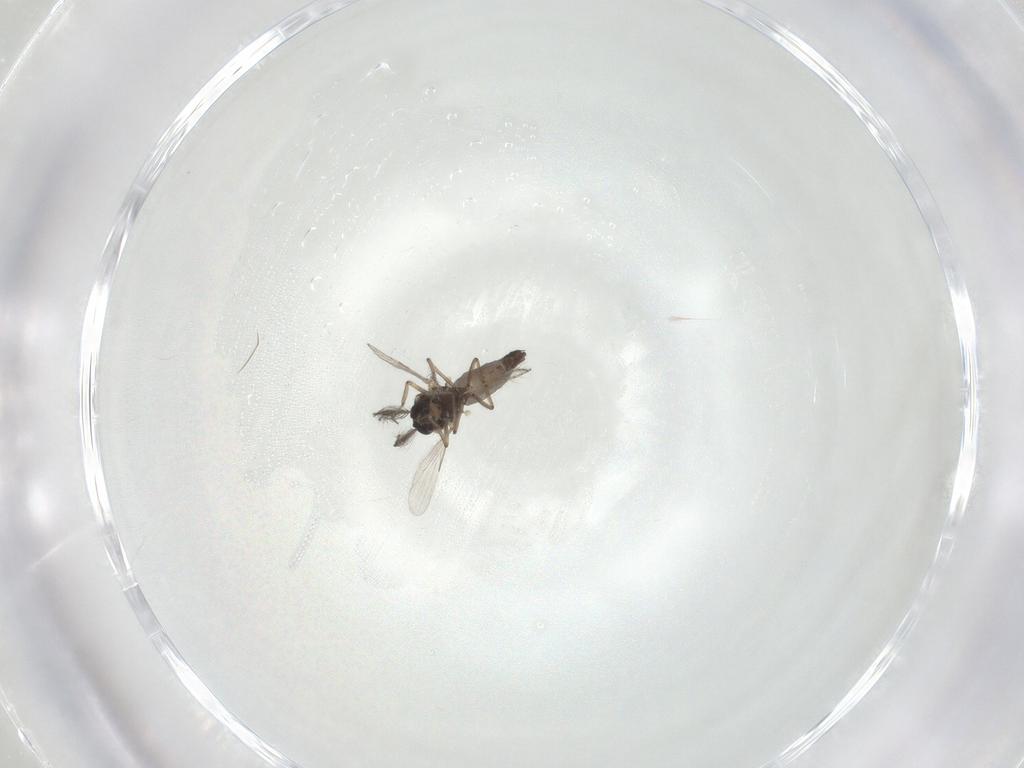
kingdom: Animalia
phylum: Arthropoda
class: Insecta
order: Diptera
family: Ceratopogonidae
